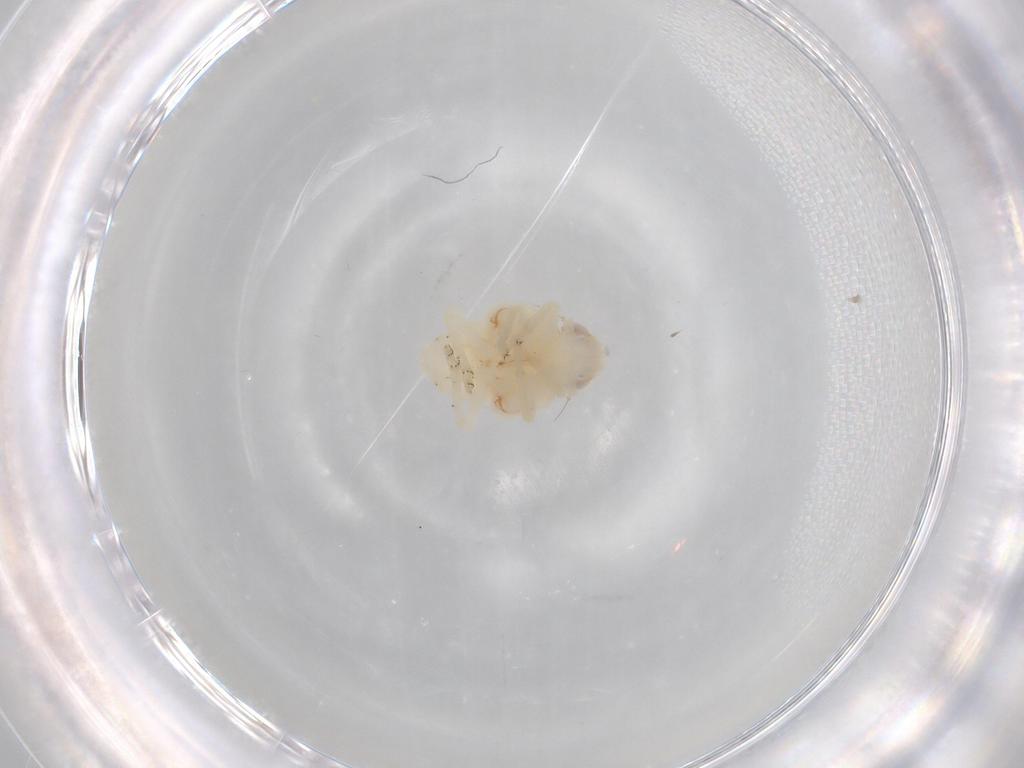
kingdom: Animalia
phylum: Arthropoda
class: Insecta
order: Hemiptera
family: Nogodinidae
